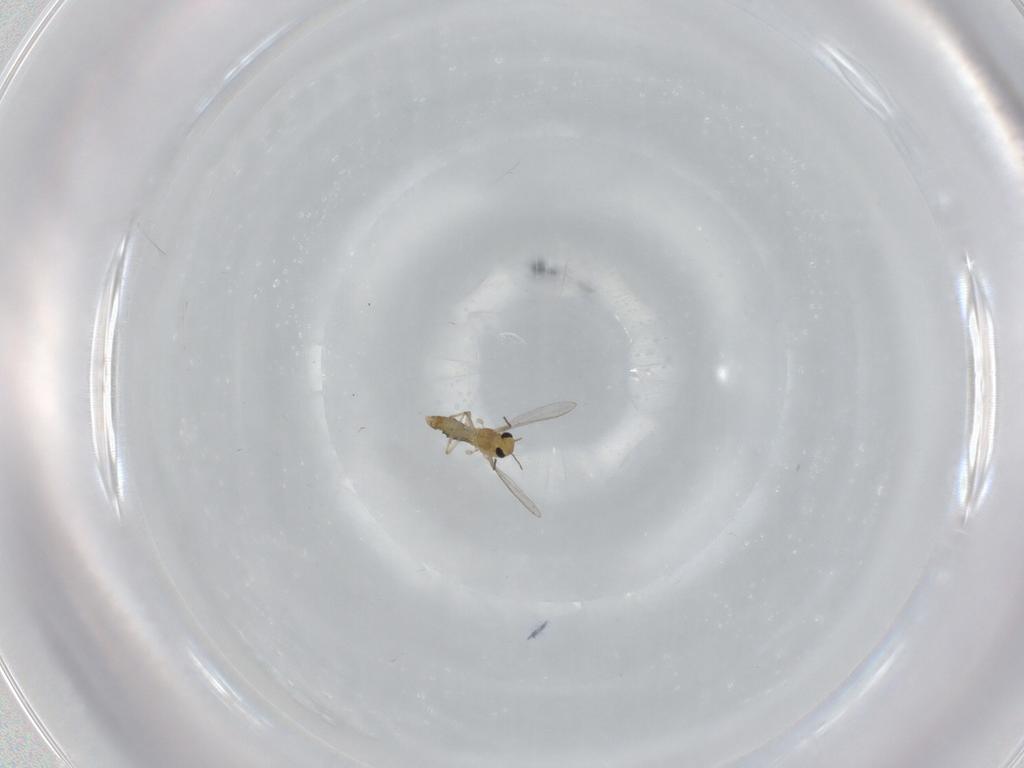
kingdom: Animalia
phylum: Arthropoda
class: Insecta
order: Diptera
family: Chironomidae
